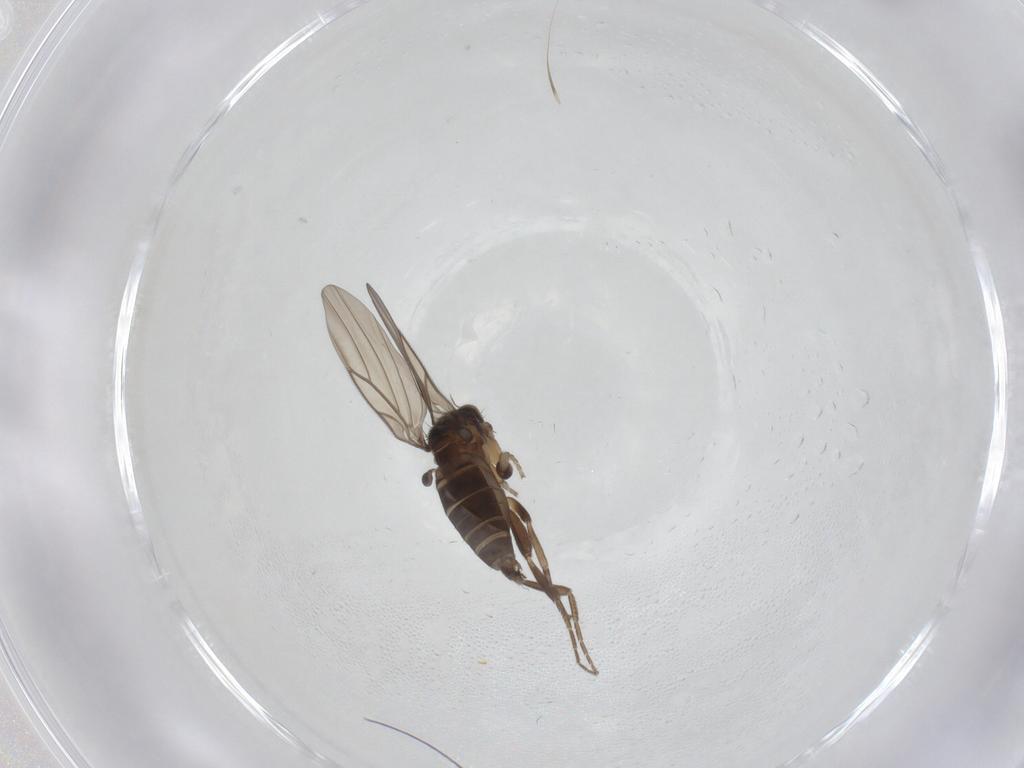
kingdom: Animalia
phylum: Arthropoda
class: Insecta
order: Diptera
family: Phoridae
